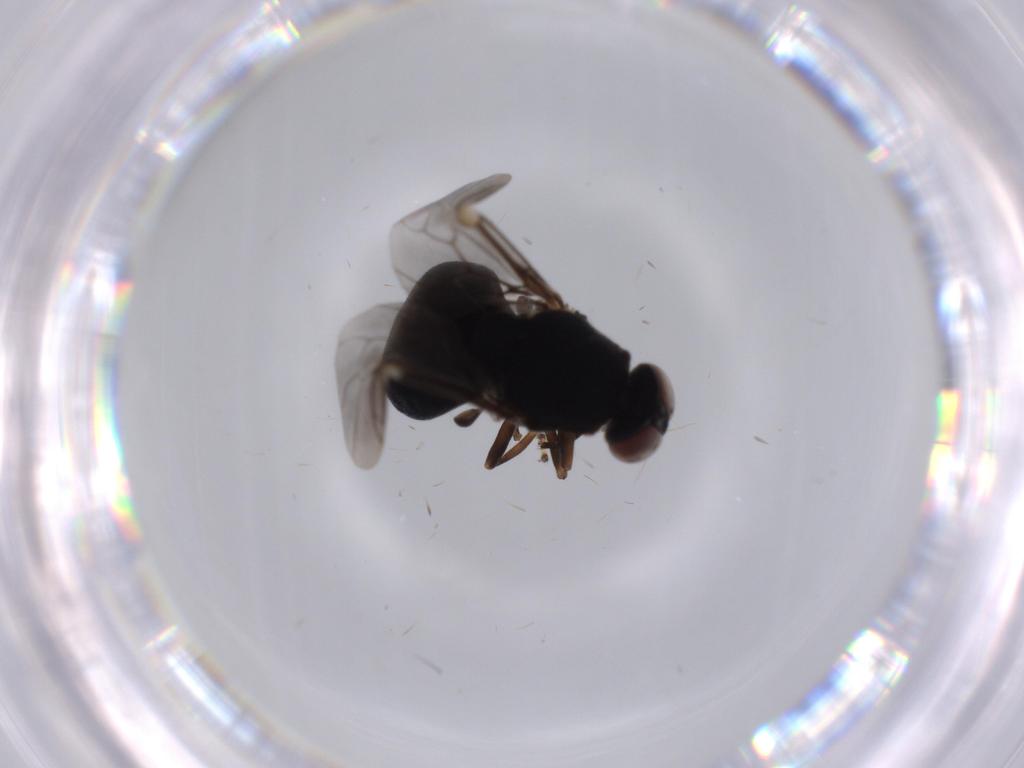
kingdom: Animalia
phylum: Arthropoda
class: Insecta
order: Diptera
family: Stratiomyidae
